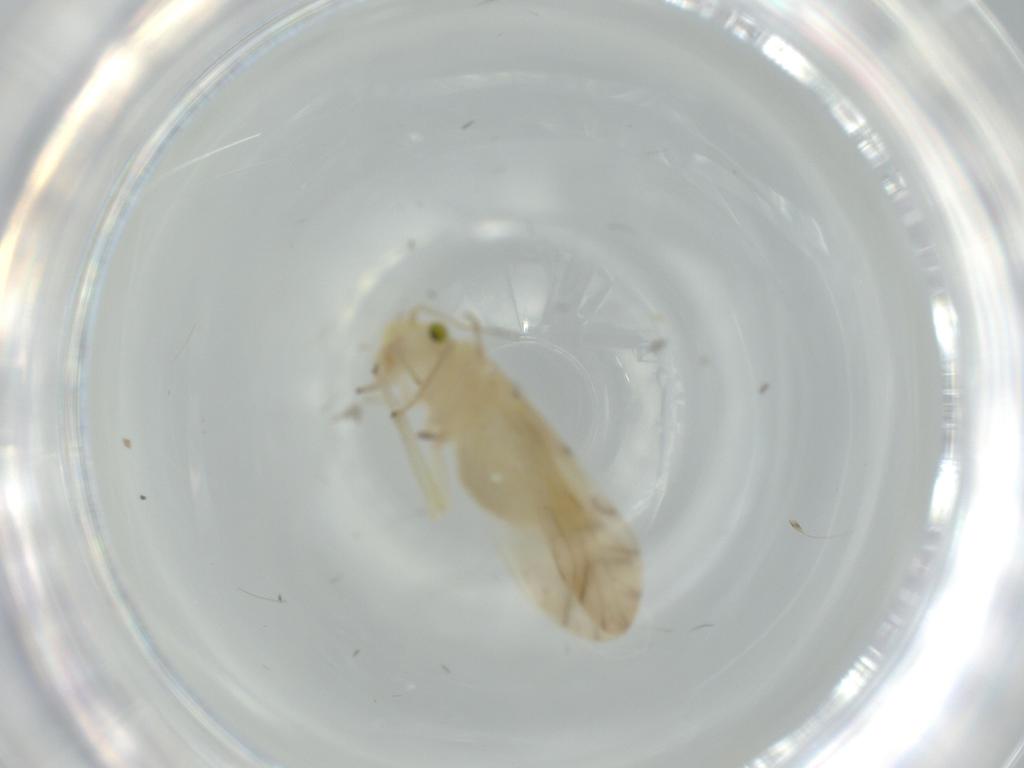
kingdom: Animalia
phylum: Arthropoda
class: Insecta
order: Psocodea
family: Caeciliusidae
